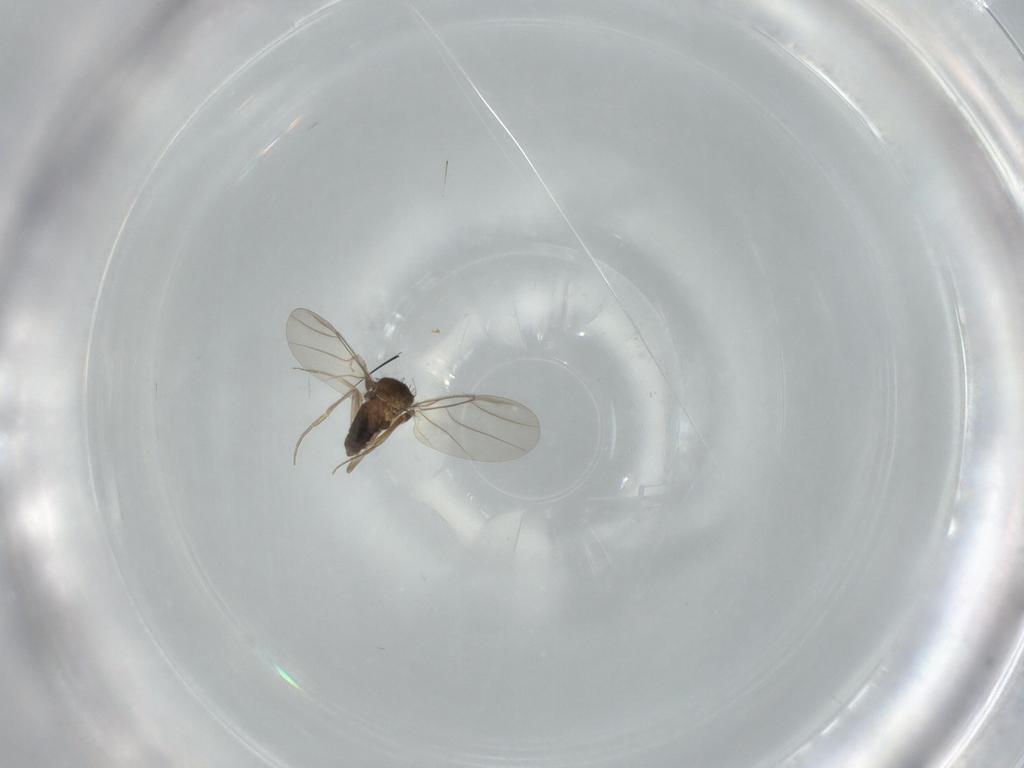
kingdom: Animalia
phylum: Arthropoda
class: Insecta
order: Diptera
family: Phoridae
